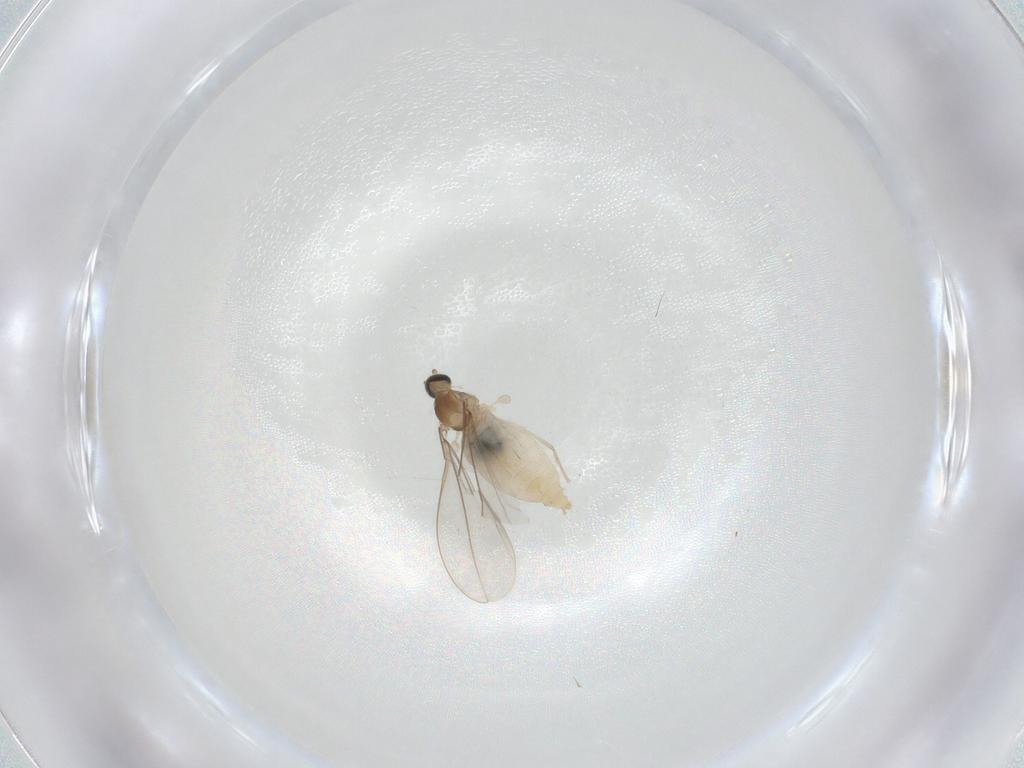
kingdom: Animalia
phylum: Arthropoda
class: Insecta
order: Diptera
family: Cecidomyiidae
